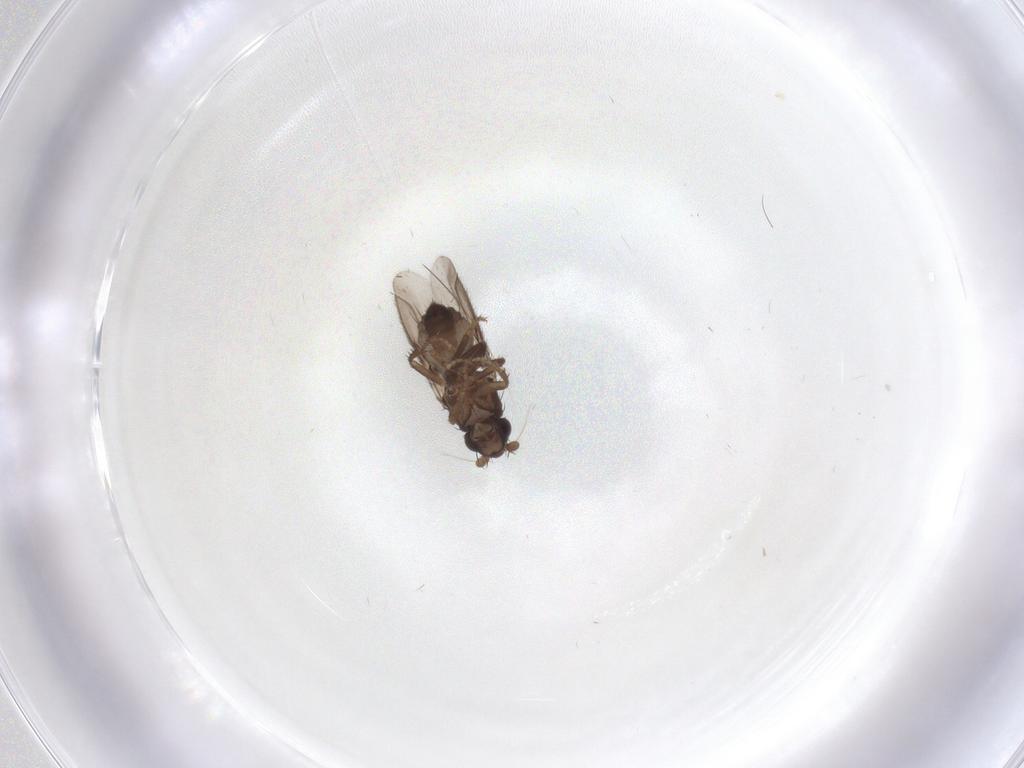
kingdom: Animalia
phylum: Arthropoda
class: Insecta
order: Diptera
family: Sphaeroceridae
